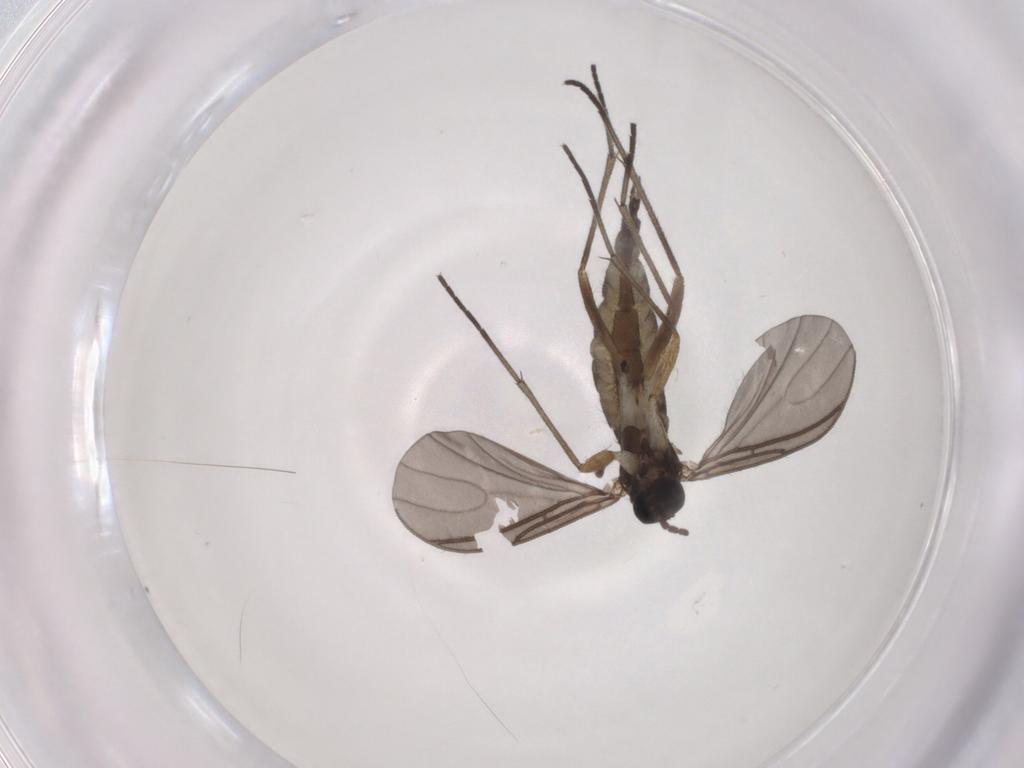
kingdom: Animalia
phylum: Arthropoda
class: Insecta
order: Diptera
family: Sciaridae
